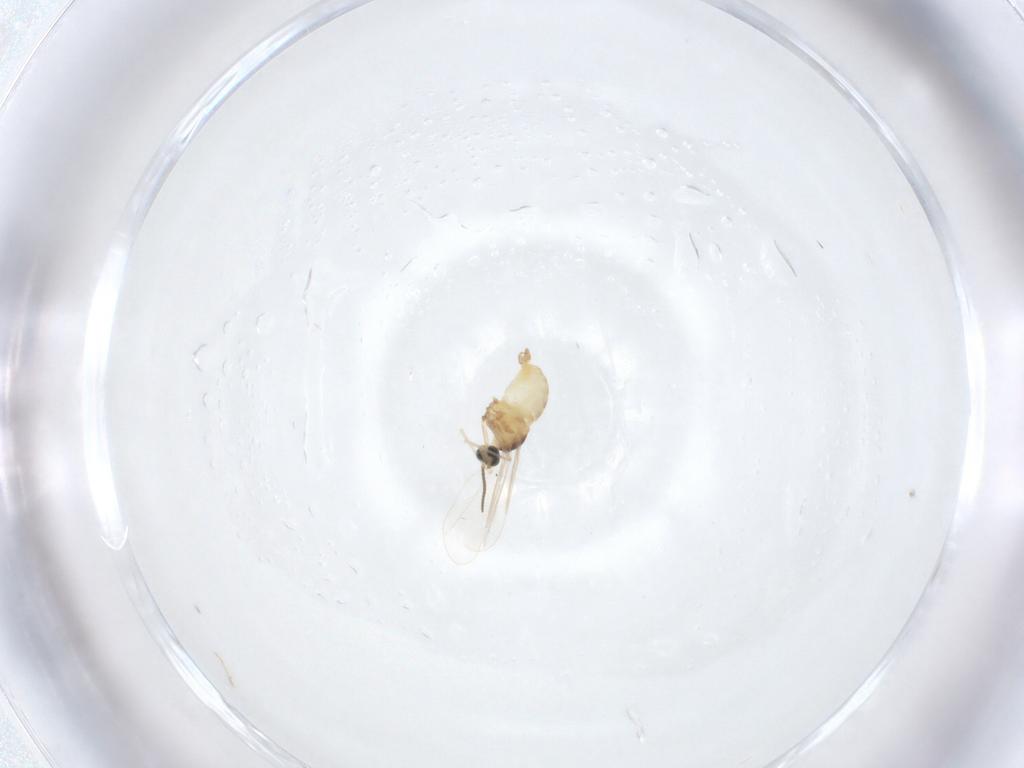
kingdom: Animalia
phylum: Arthropoda
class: Insecta
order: Diptera
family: Cecidomyiidae
